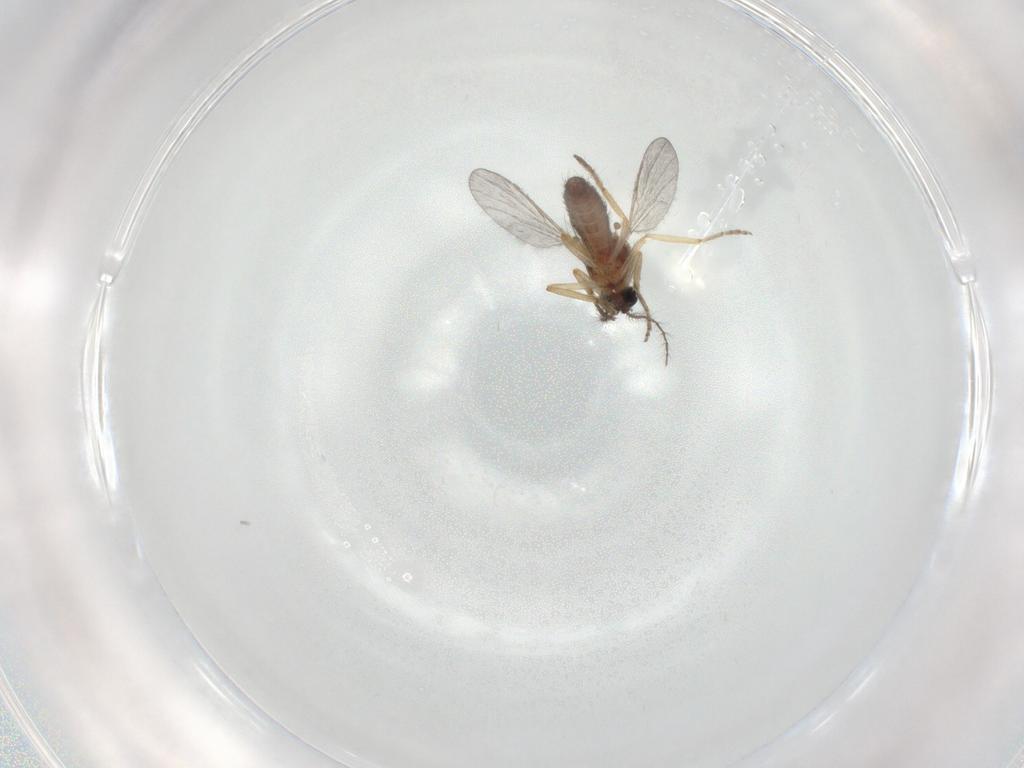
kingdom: Animalia
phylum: Arthropoda
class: Insecta
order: Diptera
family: Ceratopogonidae
